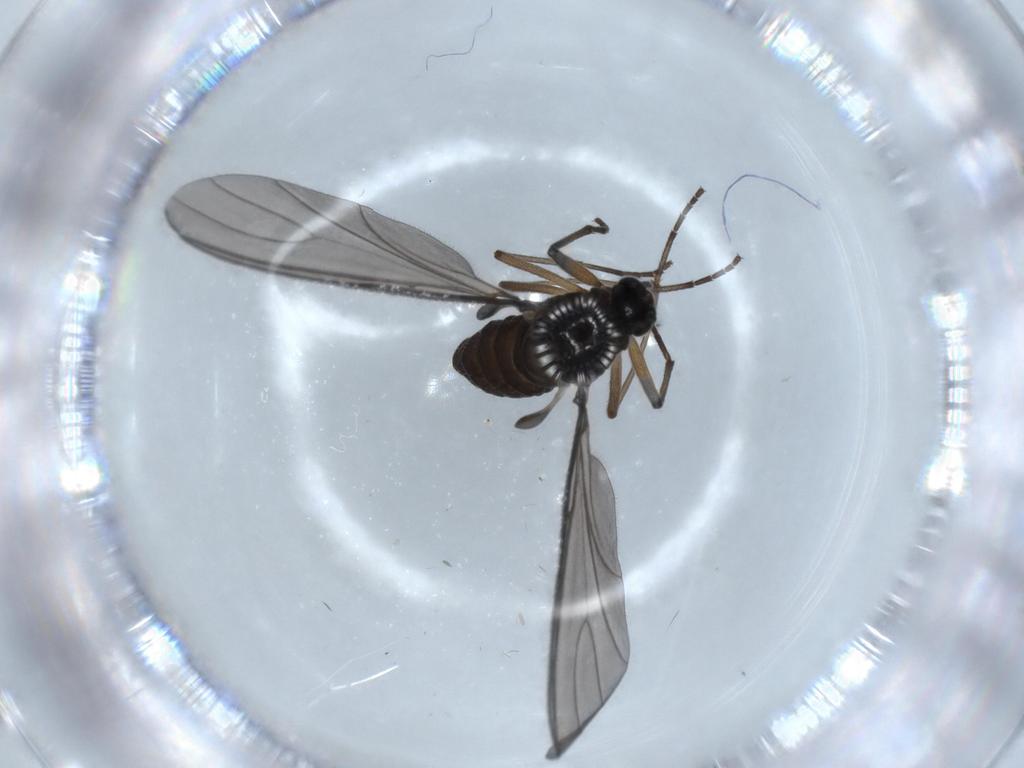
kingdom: Animalia
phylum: Arthropoda
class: Insecta
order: Diptera
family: Sciaridae
